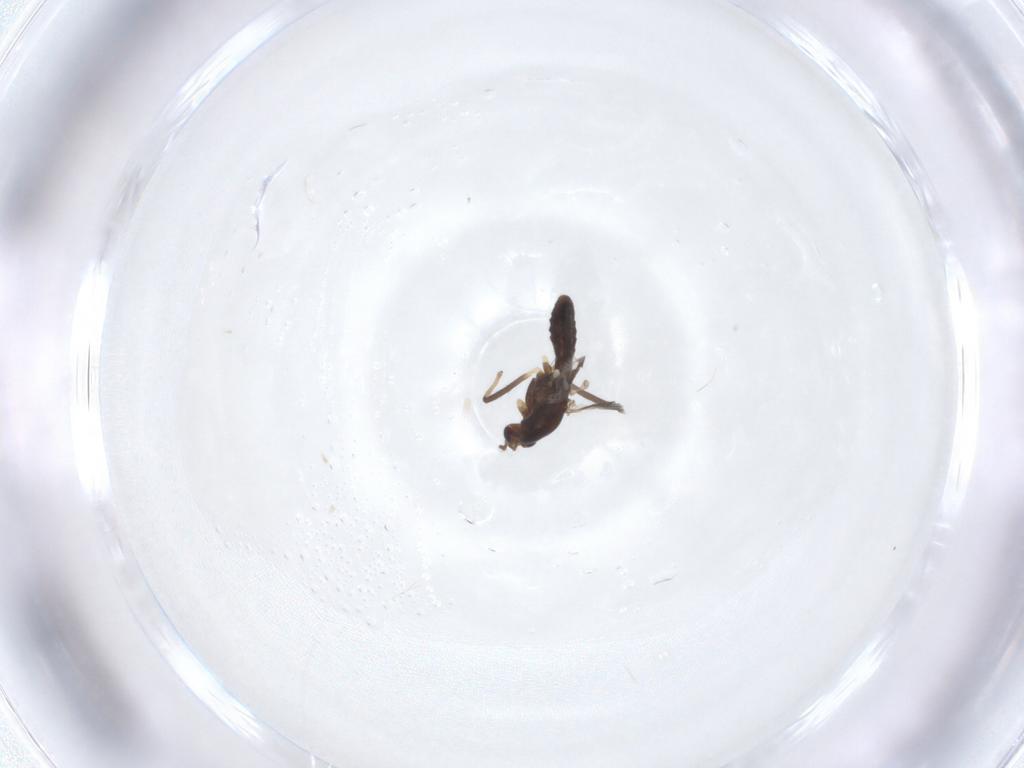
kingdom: Animalia
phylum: Arthropoda
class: Insecta
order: Diptera
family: Chironomidae
